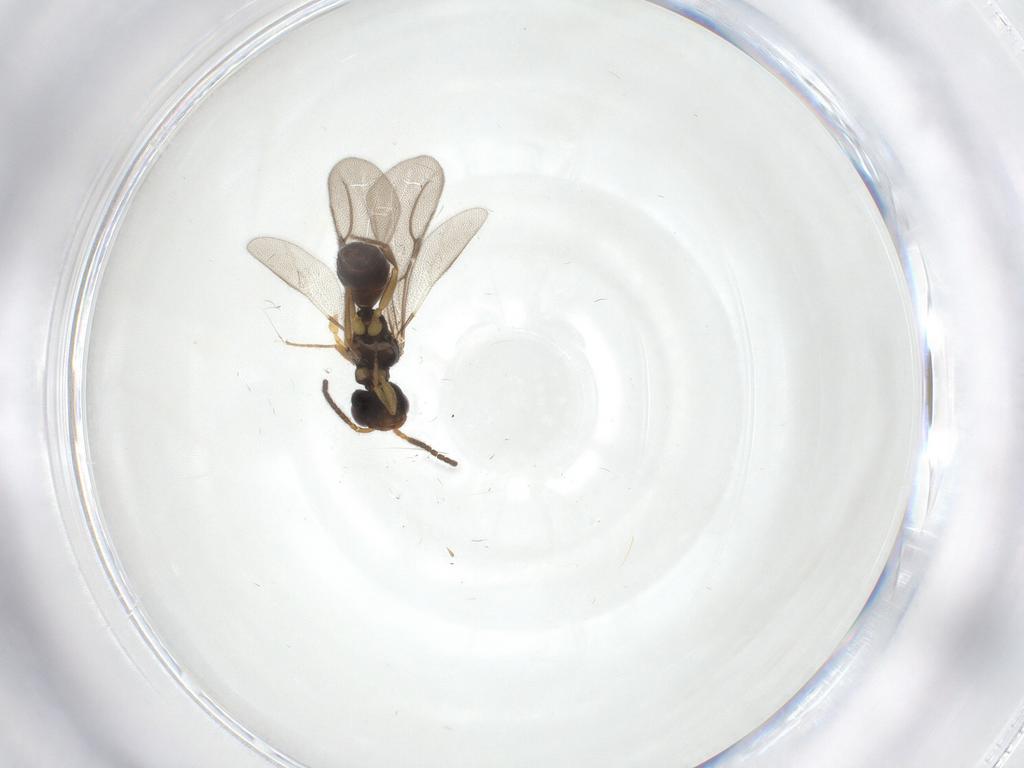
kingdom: Animalia
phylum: Arthropoda
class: Insecta
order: Hymenoptera
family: Bethylidae
